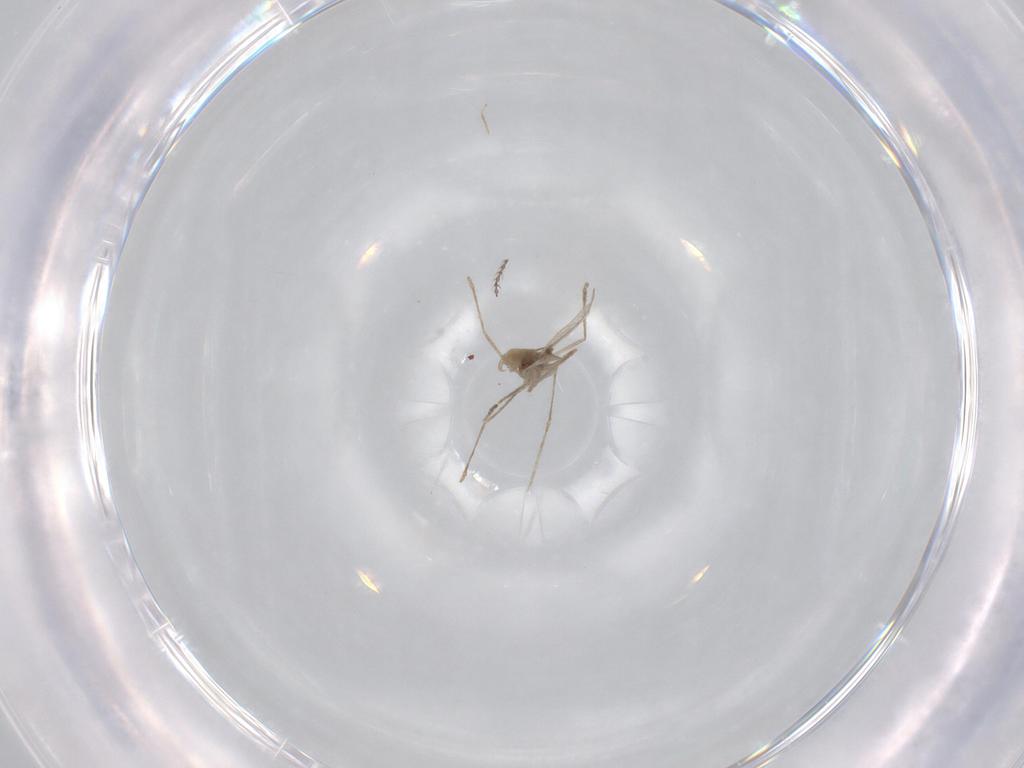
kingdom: Animalia
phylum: Arthropoda
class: Insecta
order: Diptera
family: Cecidomyiidae
